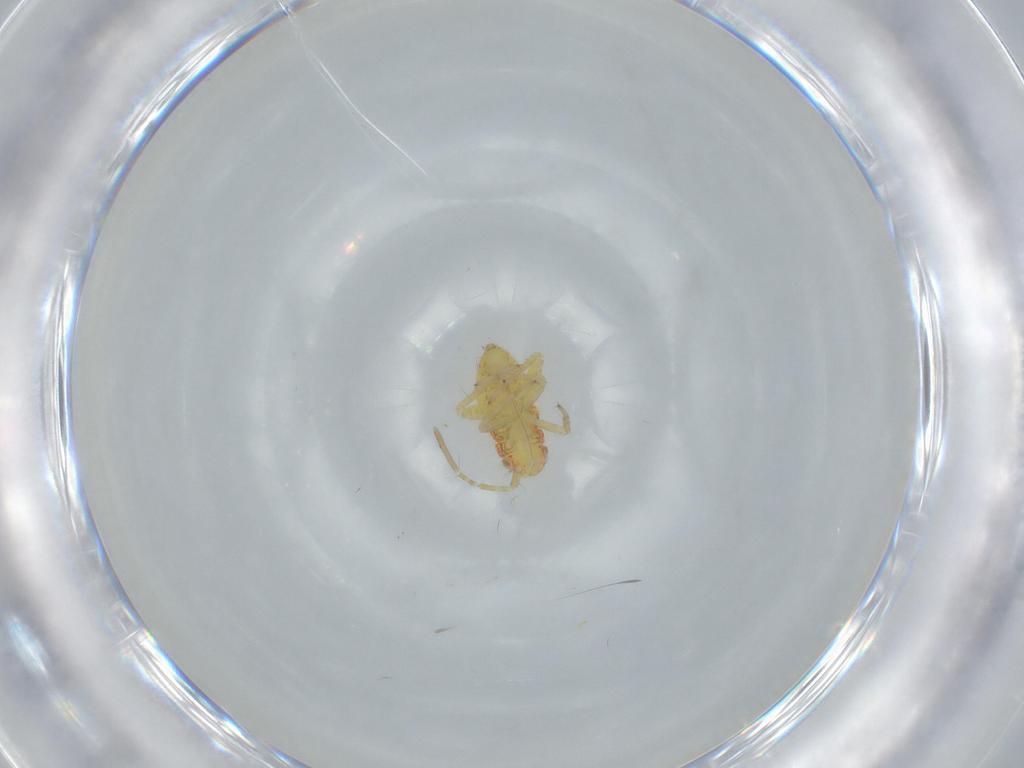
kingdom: Animalia
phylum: Arthropoda
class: Insecta
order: Hemiptera
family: Miridae
